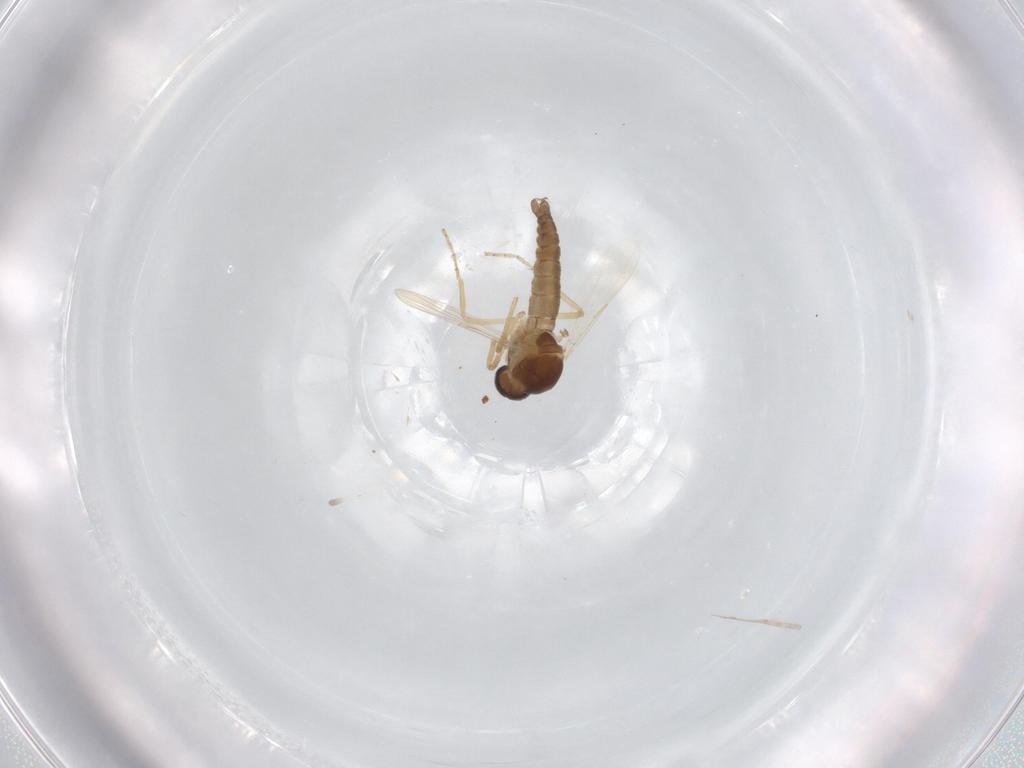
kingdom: Animalia
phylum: Arthropoda
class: Insecta
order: Diptera
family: Ceratopogonidae
